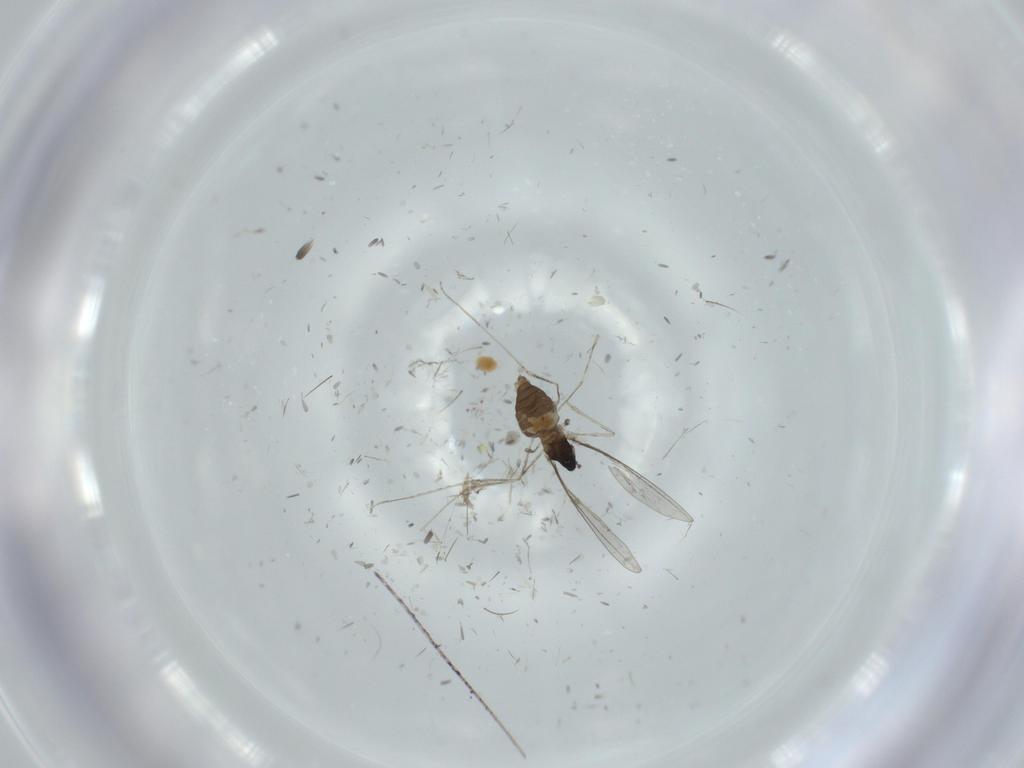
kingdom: Animalia
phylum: Arthropoda
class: Insecta
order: Diptera
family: Cecidomyiidae
